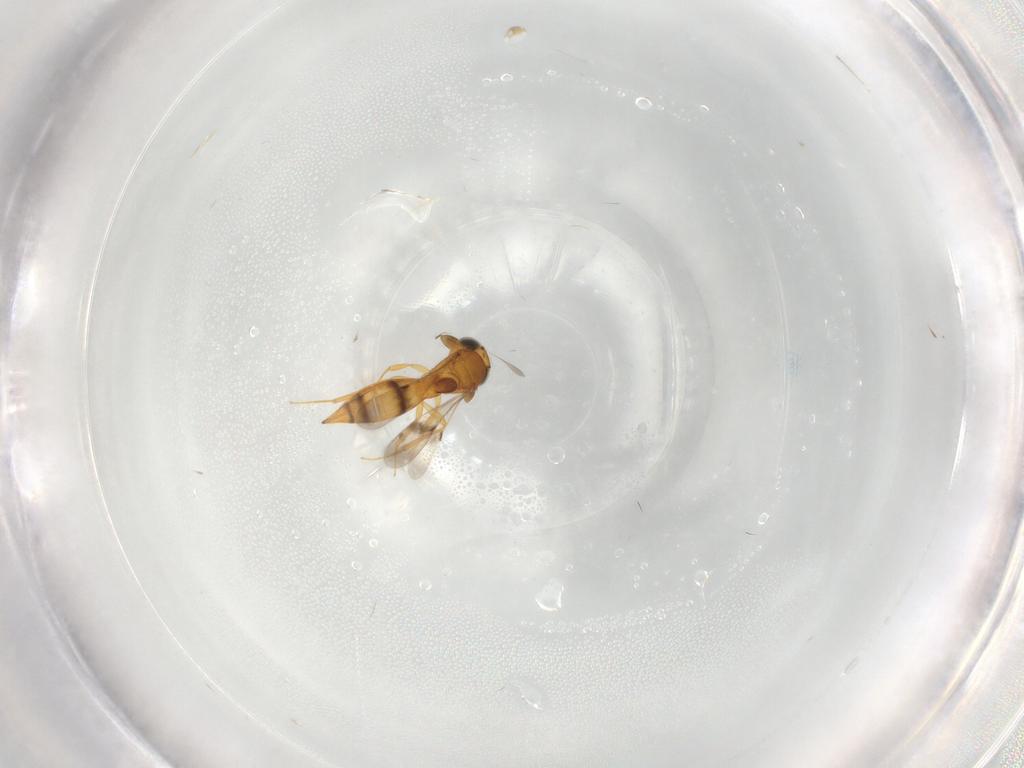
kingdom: Animalia
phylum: Arthropoda
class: Insecta
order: Hymenoptera
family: Scelionidae
